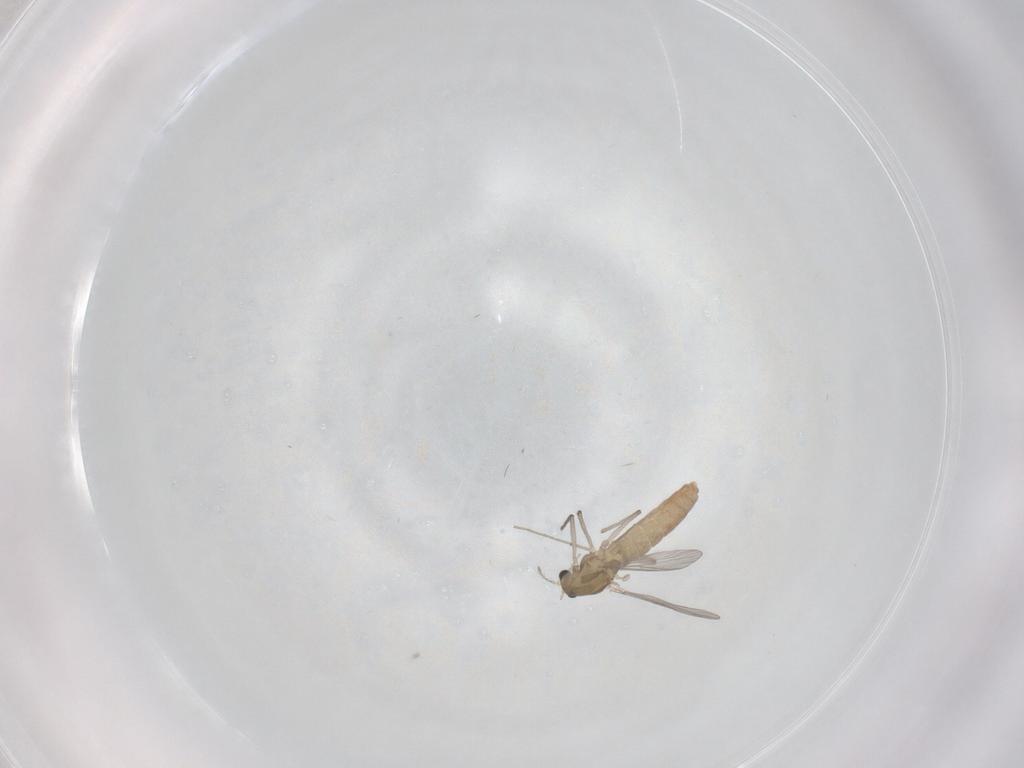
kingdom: Animalia
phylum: Arthropoda
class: Insecta
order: Diptera
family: Chironomidae
